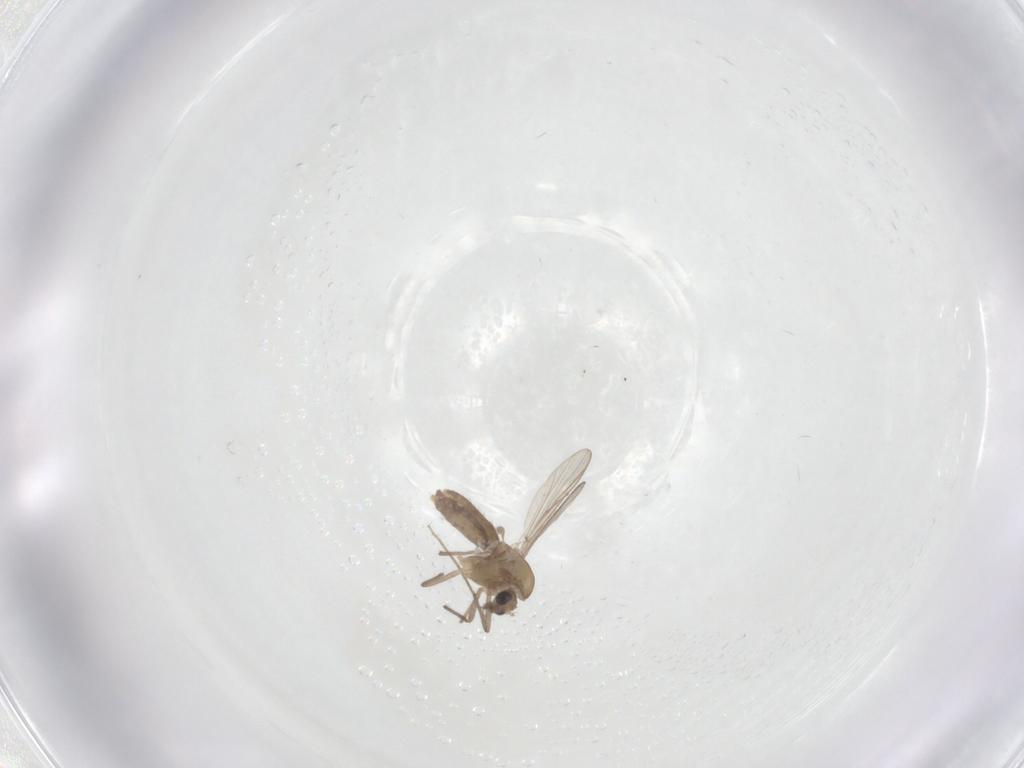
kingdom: Animalia
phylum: Arthropoda
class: Insecta
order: Diptera
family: Chironomidae
